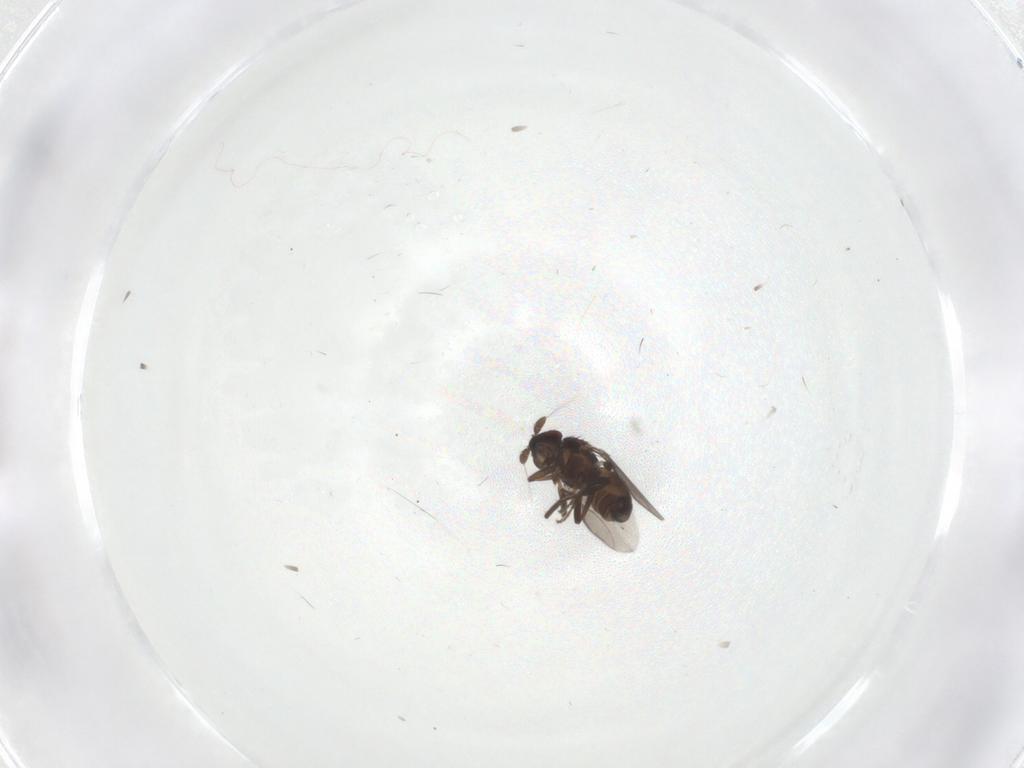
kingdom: Animalia
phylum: Arthropoda
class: Insecta
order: Diptera
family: Sphaeroceridae
